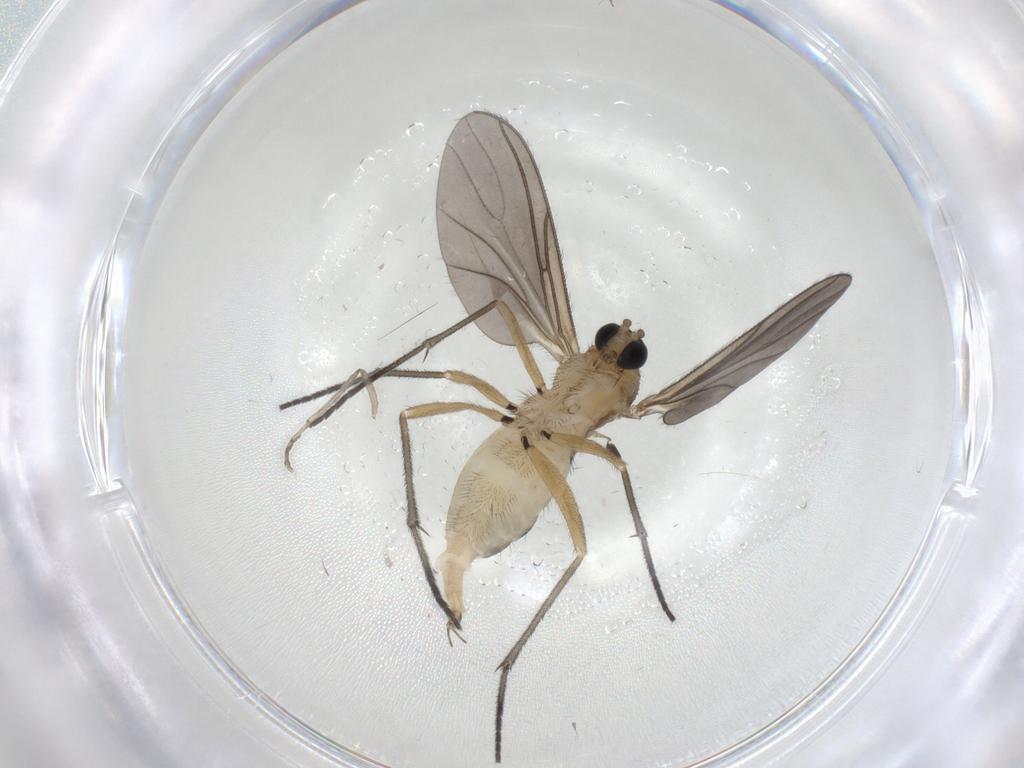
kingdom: Animalia
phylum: Arthropoda
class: Insecta
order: Diptera
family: Sciaridae
